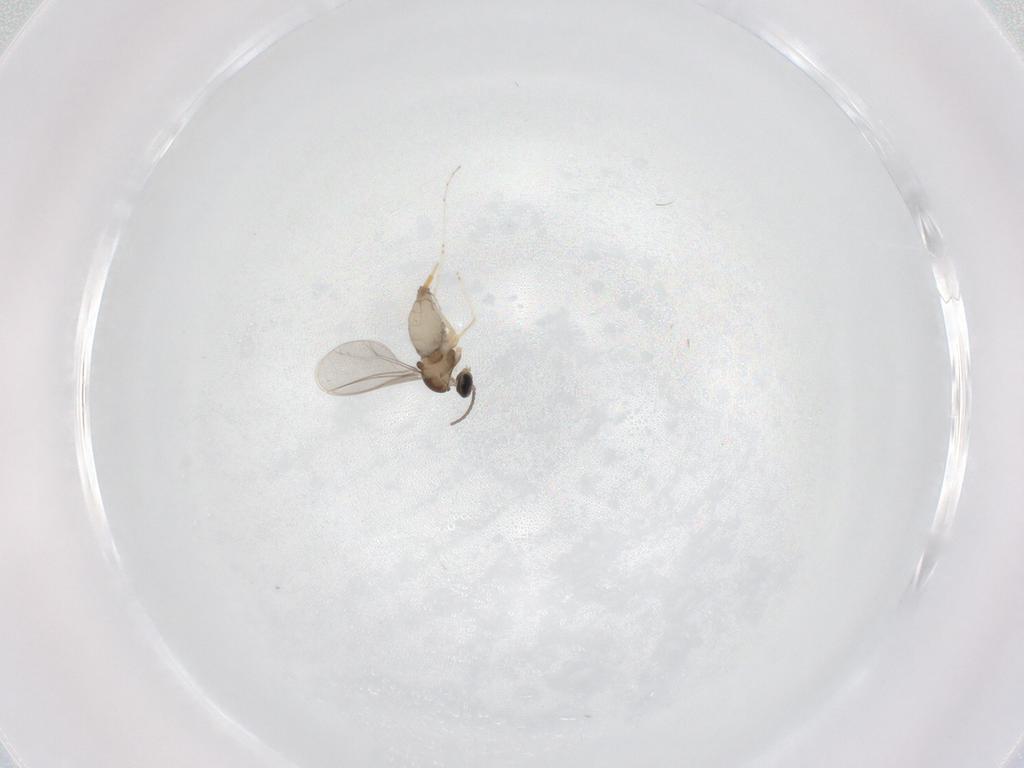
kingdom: Animalia
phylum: Arthropoda
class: Insecta
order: Diptera
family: Cecidomyiidae
